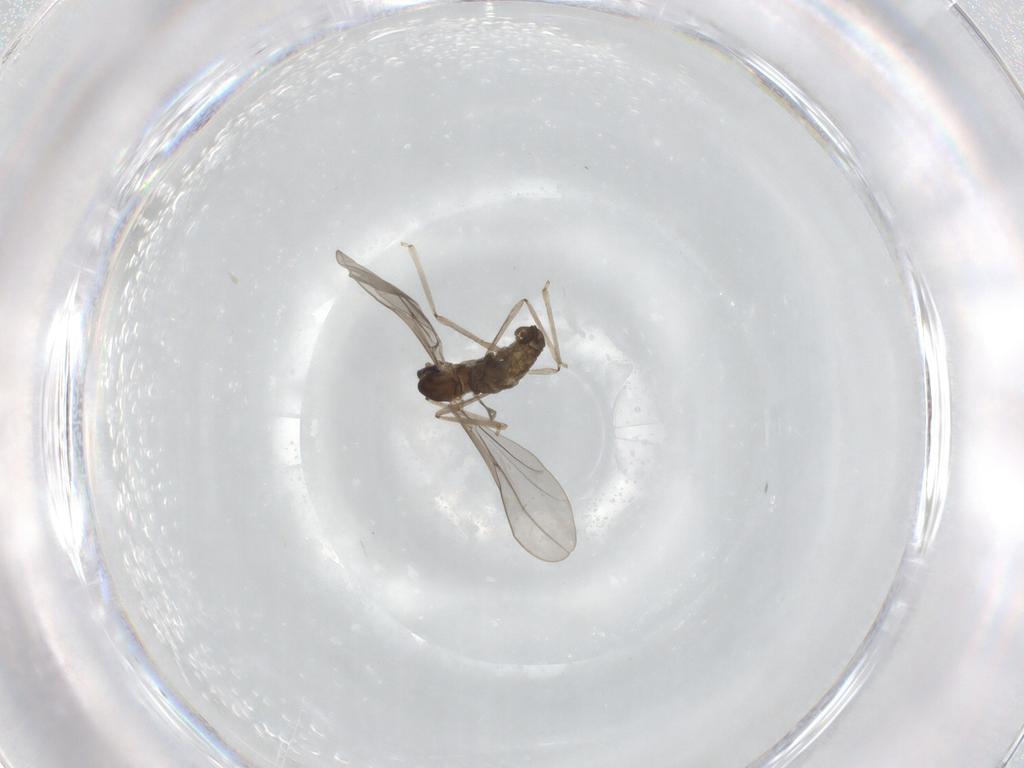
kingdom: Animalia
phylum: Arthropoda
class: Insecta
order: Diptera
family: Cecidomyiidae
